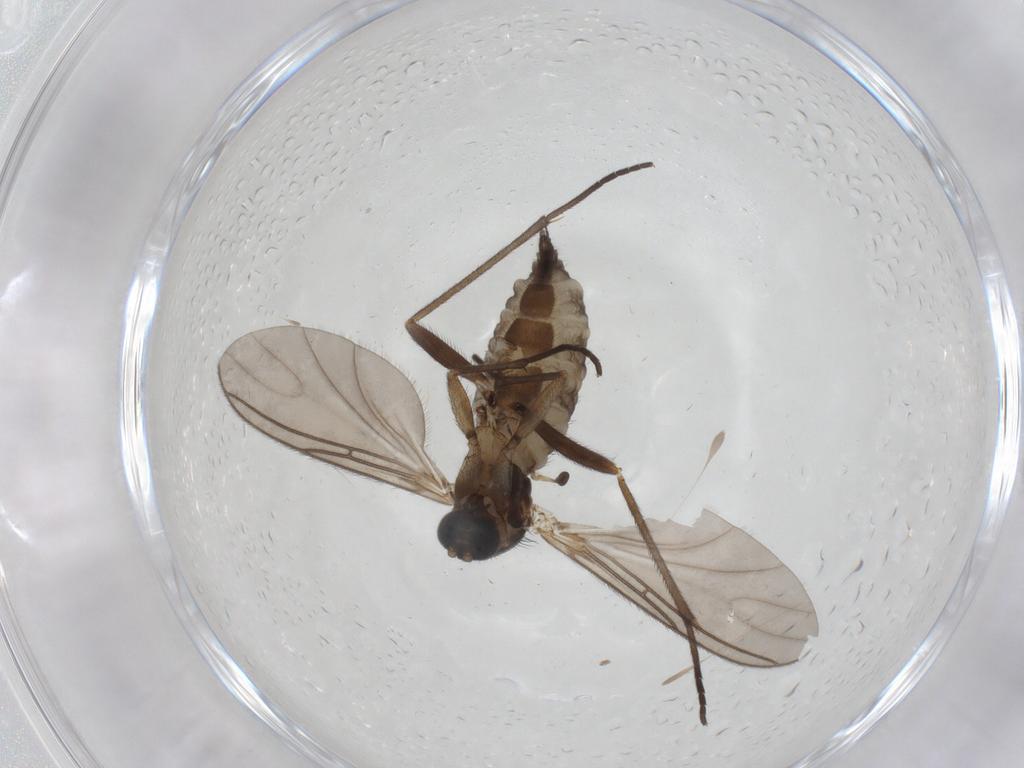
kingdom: Animalia
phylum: Arthropoda
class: Insecta
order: Diptera
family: Sciaridae
